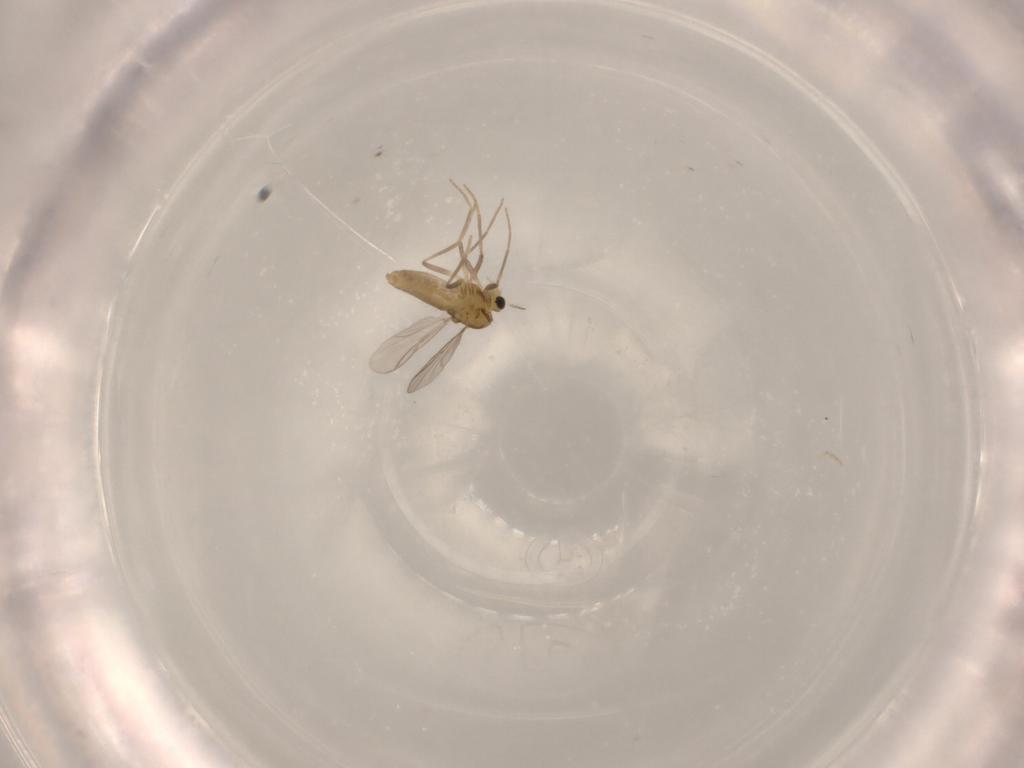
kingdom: Animalia
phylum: Arthropoda
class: Insecta
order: Diptera
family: Chironomidae
